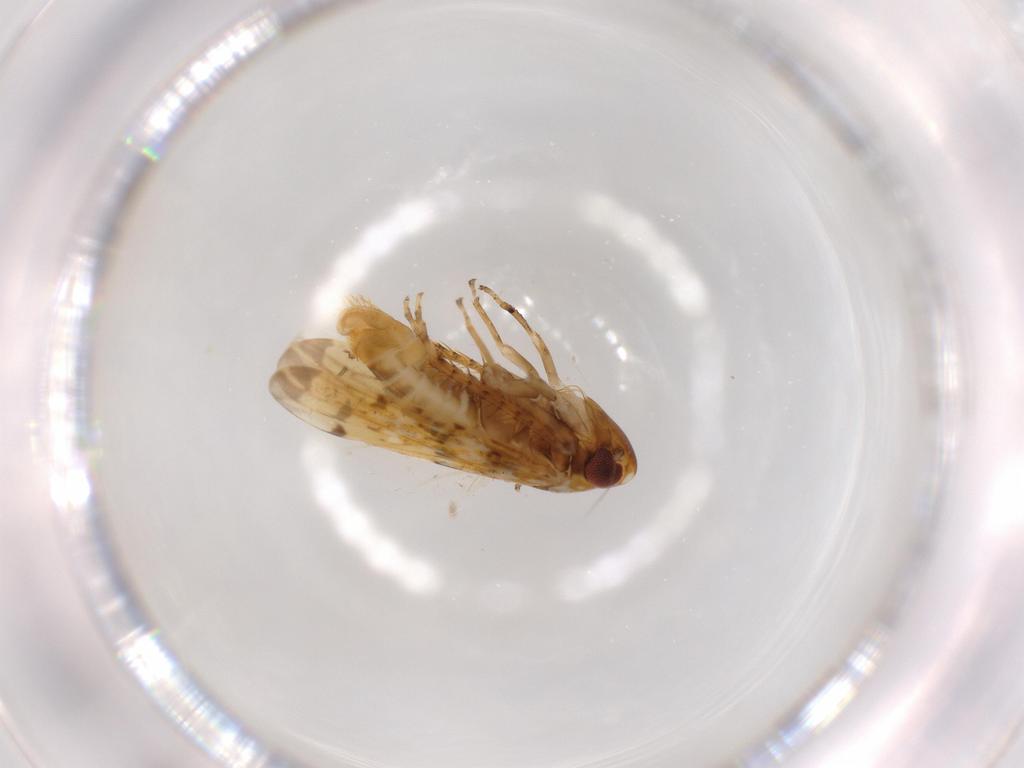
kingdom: Animalia
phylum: Arthropoda
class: Insecta
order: Hemiptera
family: Cicadellidae
